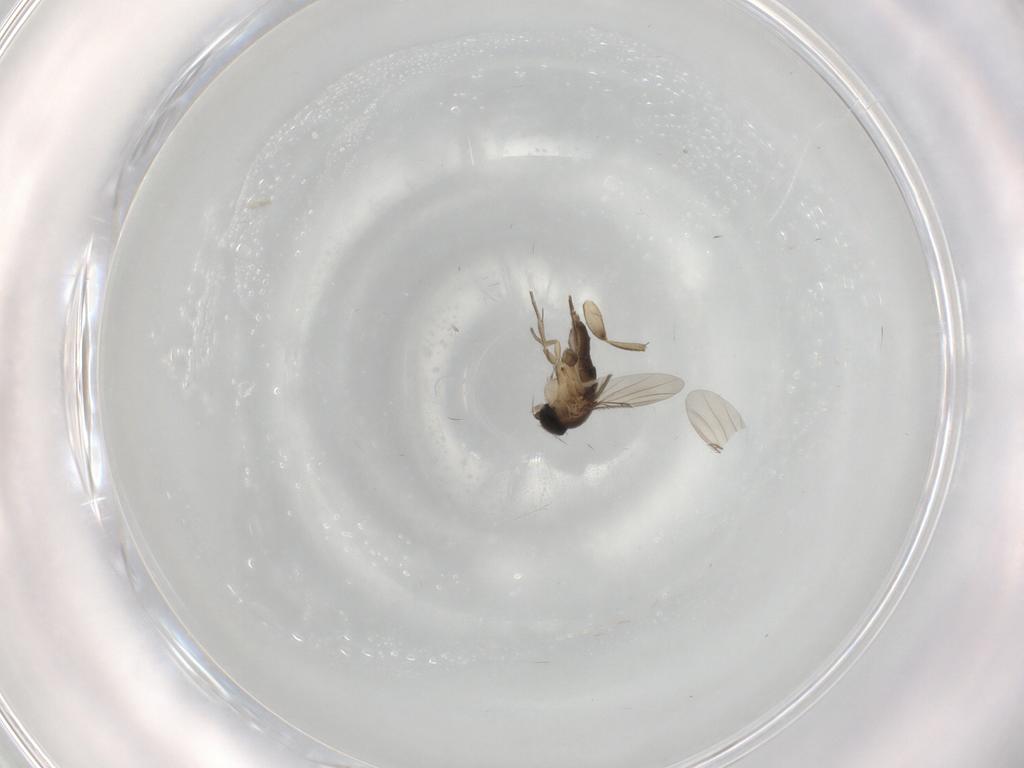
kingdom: Animalia
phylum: Arthropoda
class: Insecta
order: Diptera
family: Phoridae
